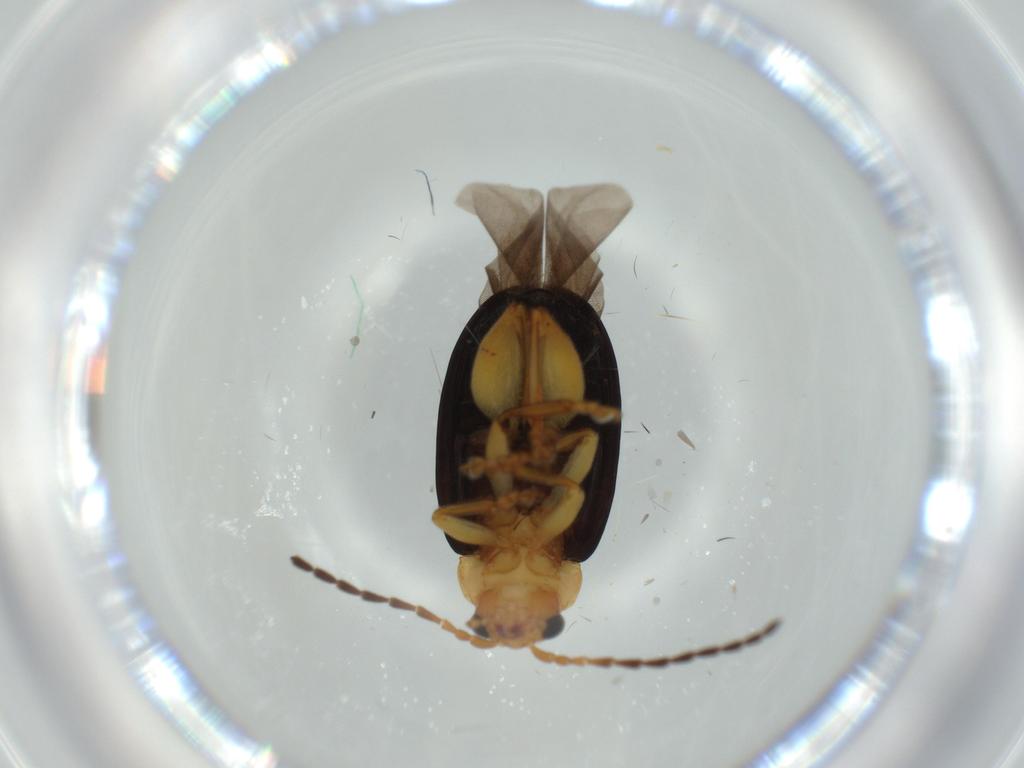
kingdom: Animalia
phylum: Arthropoda
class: Insecta
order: Coleoptera
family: Chrysomelidae
